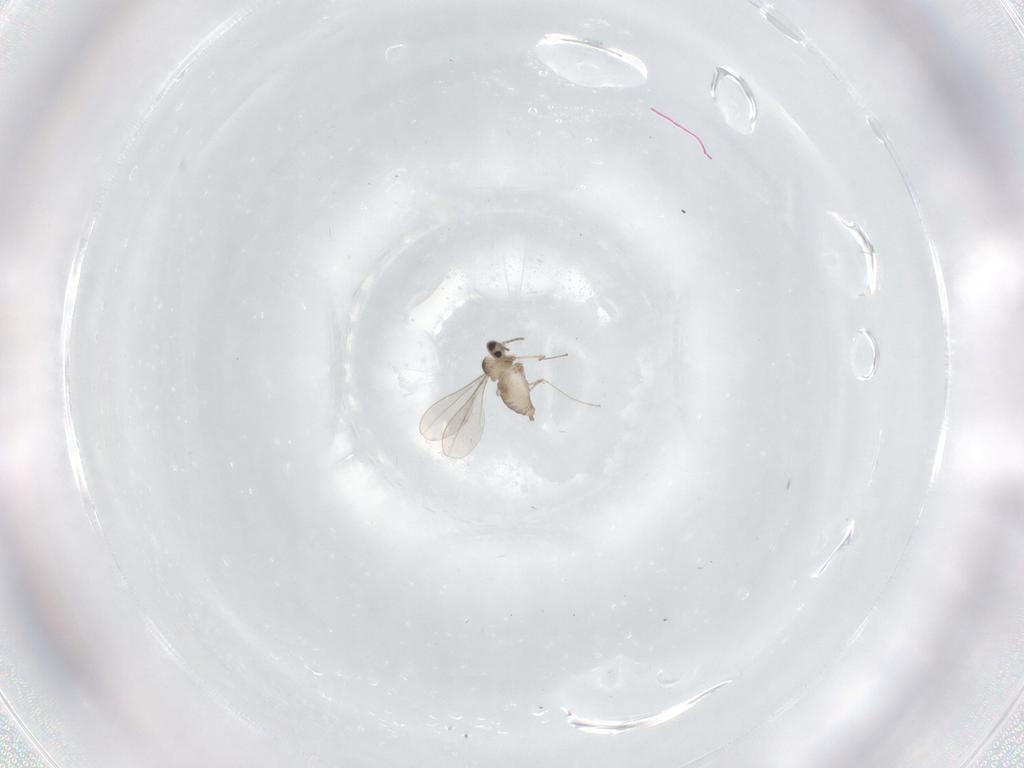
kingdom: Animalia
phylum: Arthropoda
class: Insecta
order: Diptera
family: Cecidomyiidae
